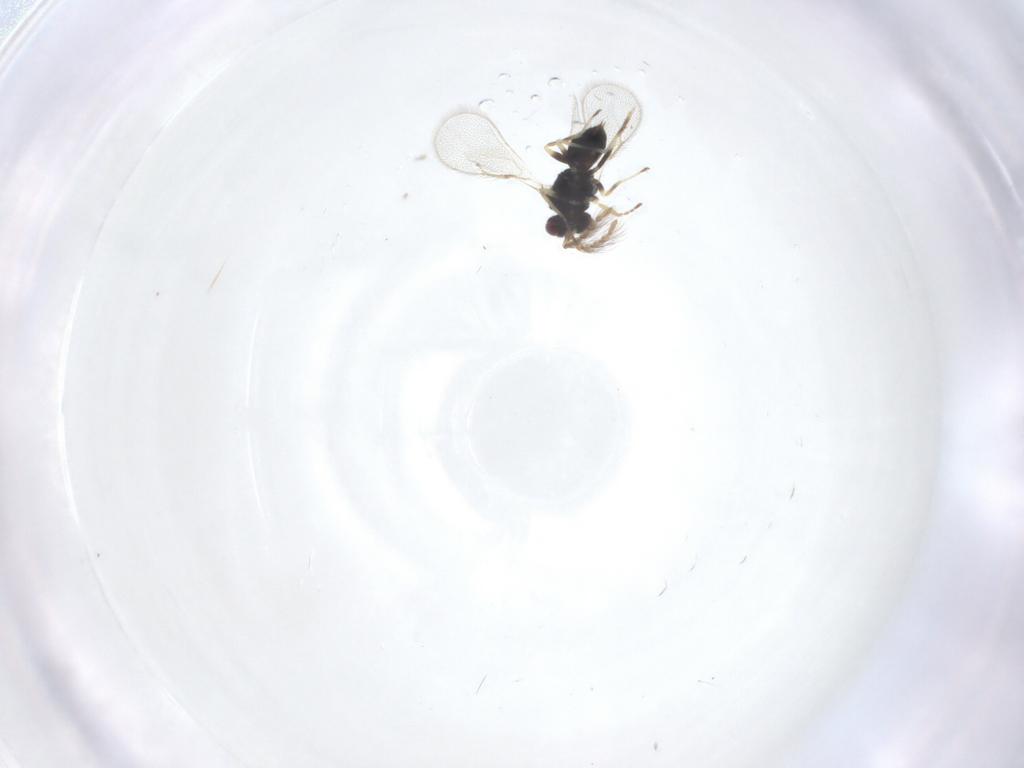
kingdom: Animalia
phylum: Arthropoda
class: Insecta
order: Hymenoptera
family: Eulophidae
